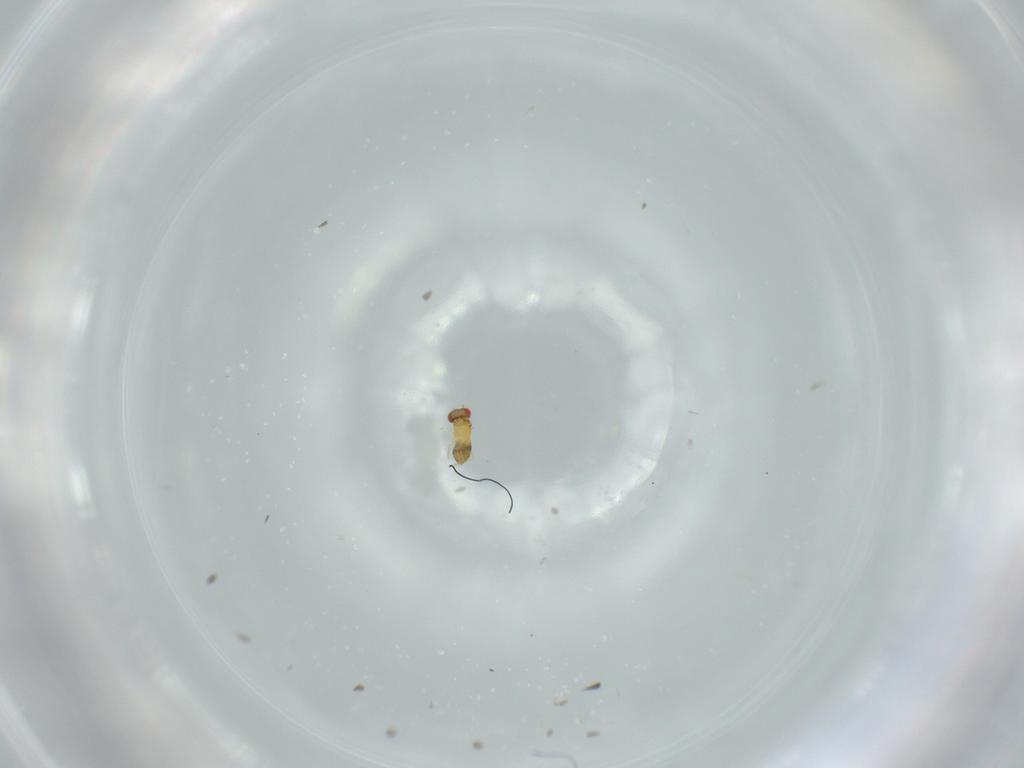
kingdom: Animalia
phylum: Arthropoda
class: Insecta
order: Hymenoptera
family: Trichogrammatidae
